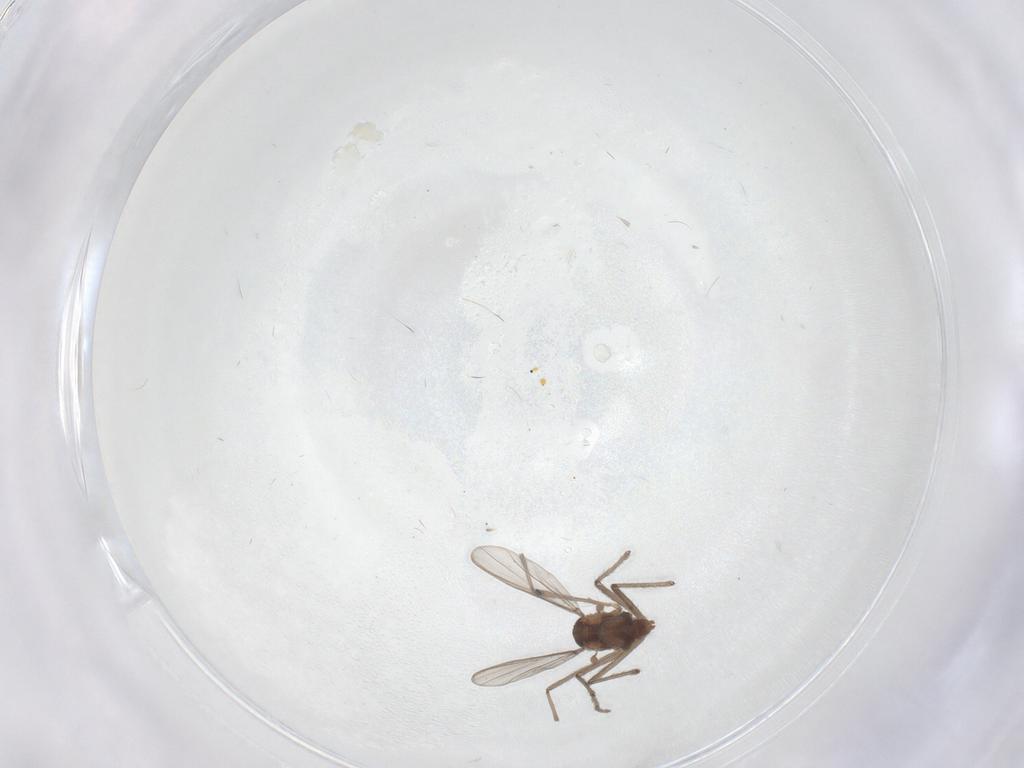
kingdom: Animalia
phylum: Arthropoda
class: Insecta
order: Diptera
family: Chironomidae
